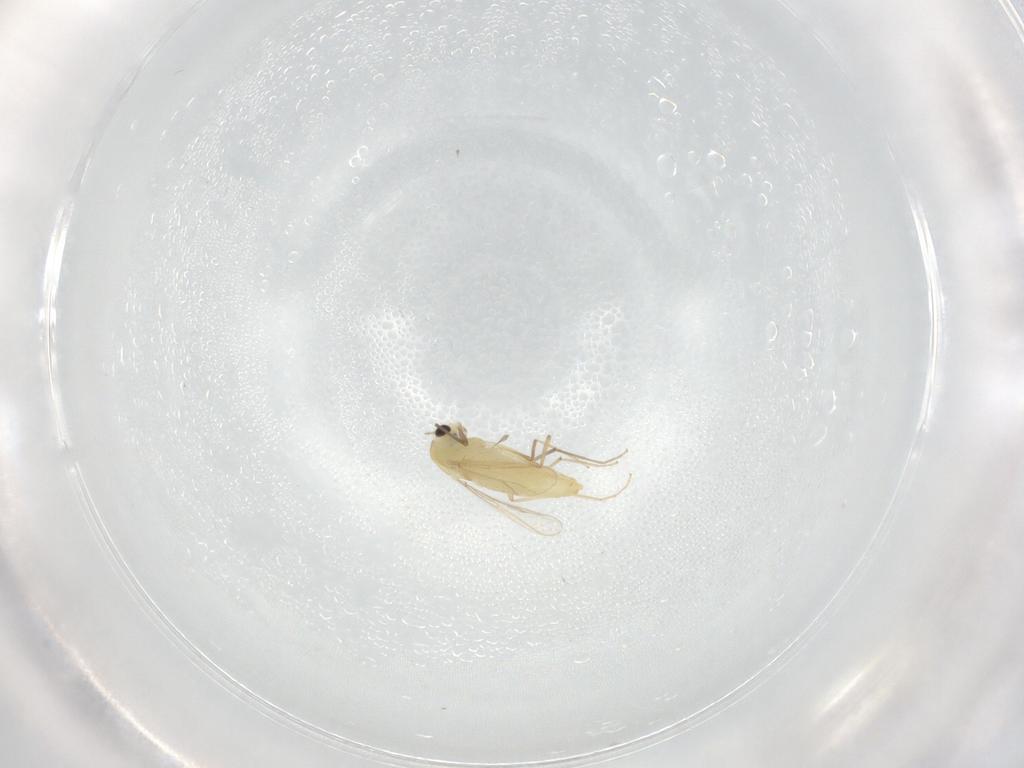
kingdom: Animalia
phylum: Arthropoda
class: Insecta
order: Diptera
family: Chironomidae
